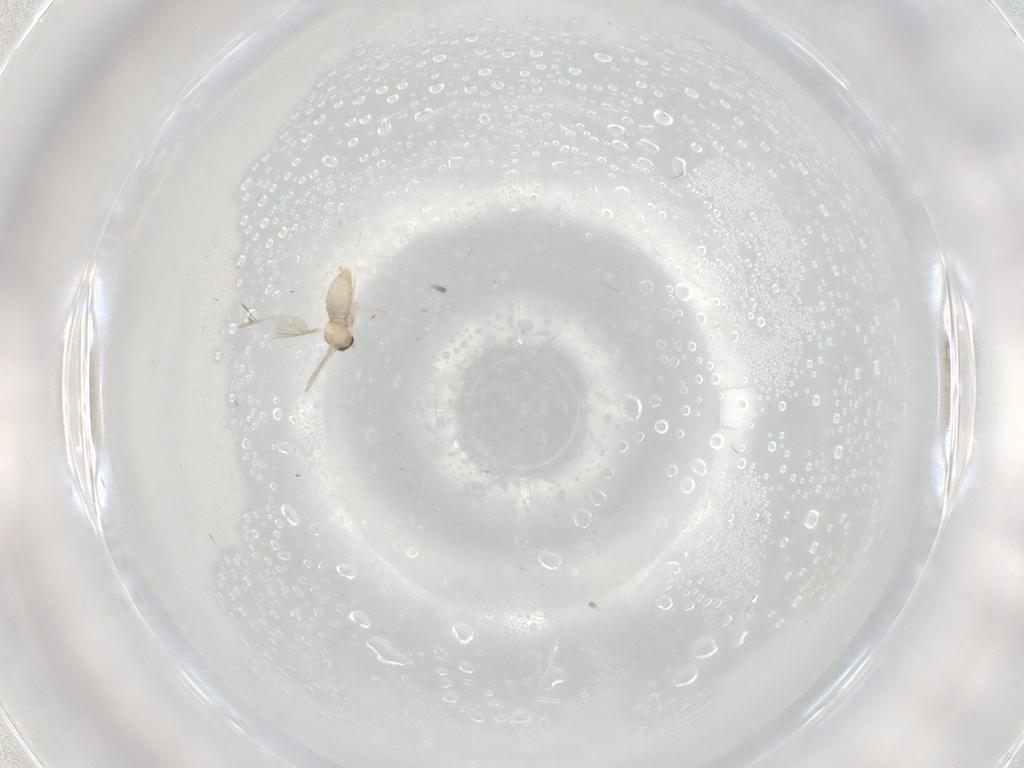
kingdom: Animalia
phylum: Arthropoda
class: Insecta
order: Diptera
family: Cecidomyiidae
